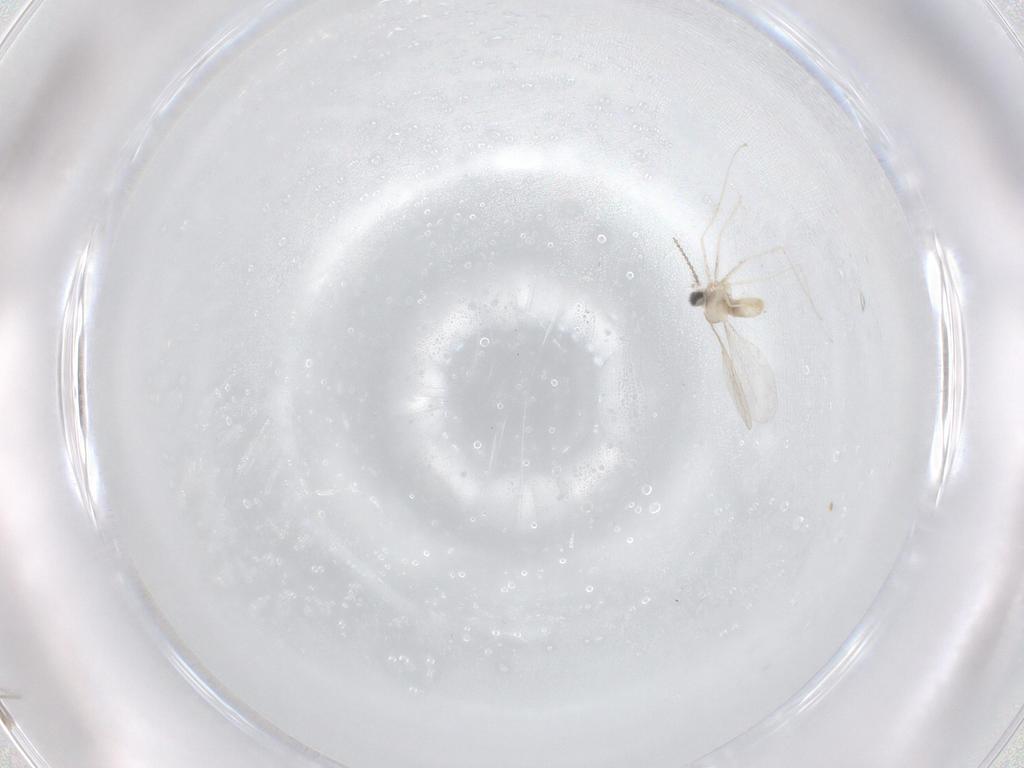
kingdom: Animalia
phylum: Arthropoda
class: Insecta
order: Diptera
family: Cecidomyiidae
